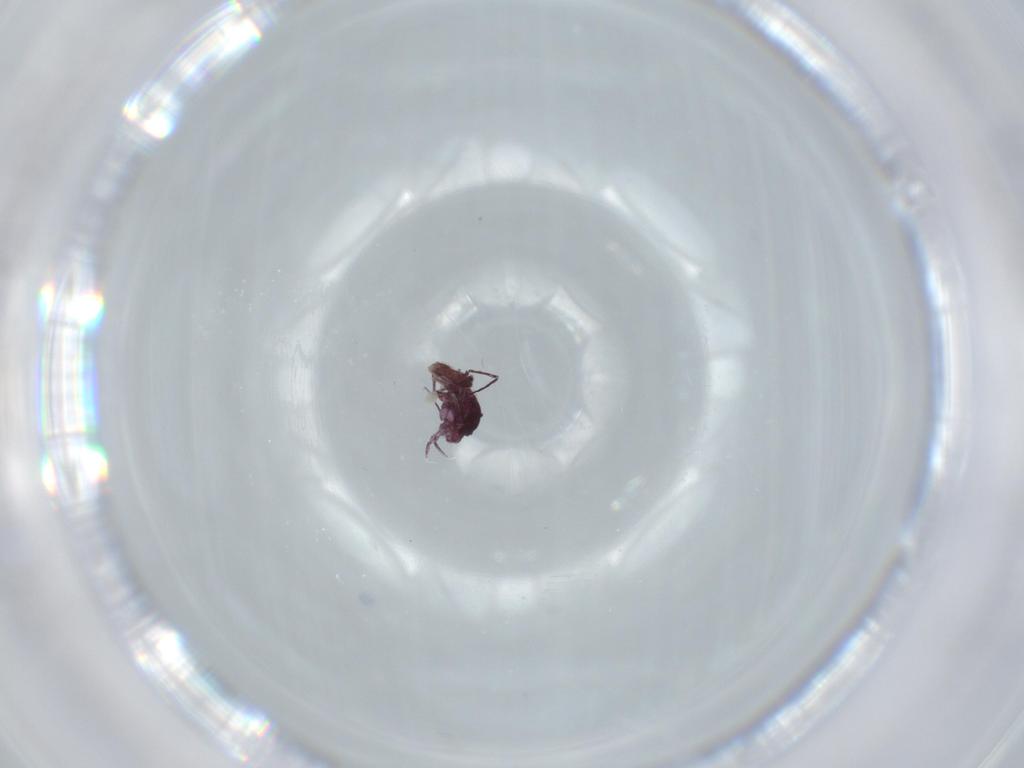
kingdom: Animalia
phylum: Arthropoda
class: Collembola
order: Symphypleona
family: Dicyrtomidae
